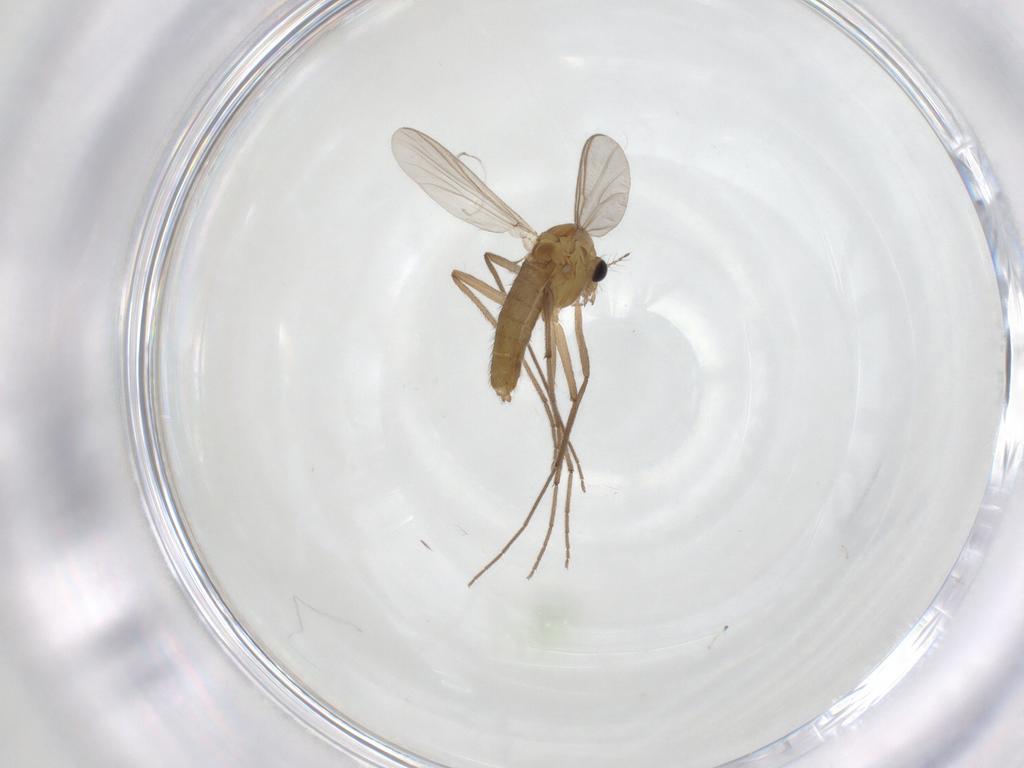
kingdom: Animalia
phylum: Arthropoda
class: Insecta
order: Diptera
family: Chironomidae
